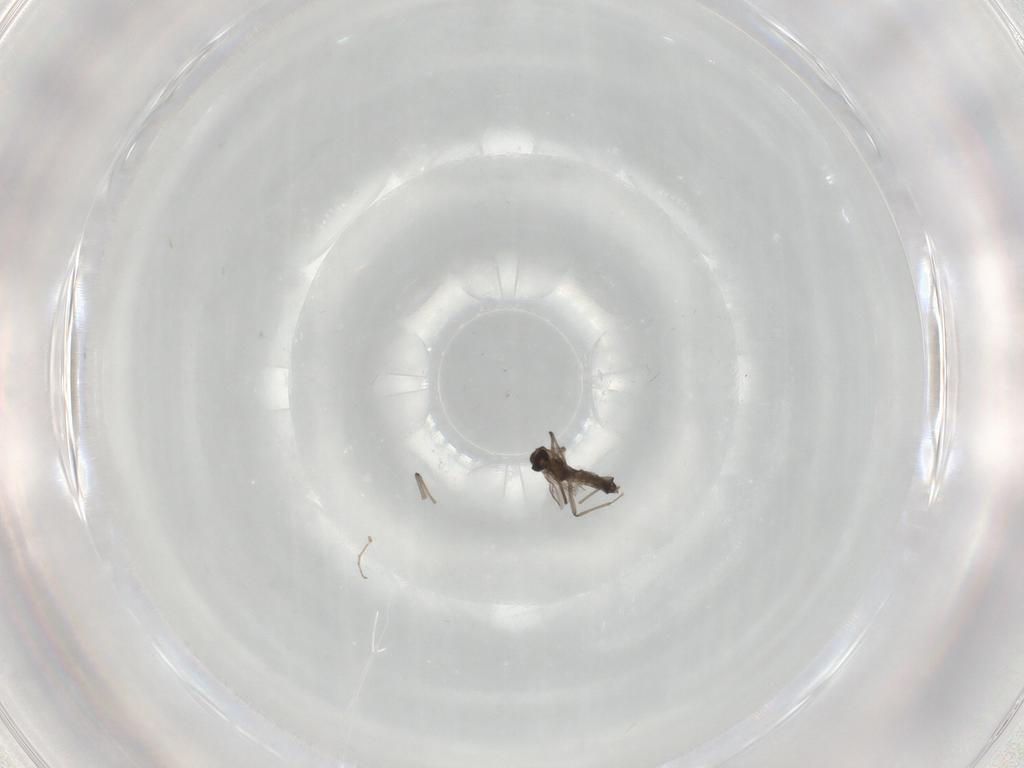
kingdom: Animalia
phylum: Arthropoda
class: Insecta
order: Diptera
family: Chironomidae
